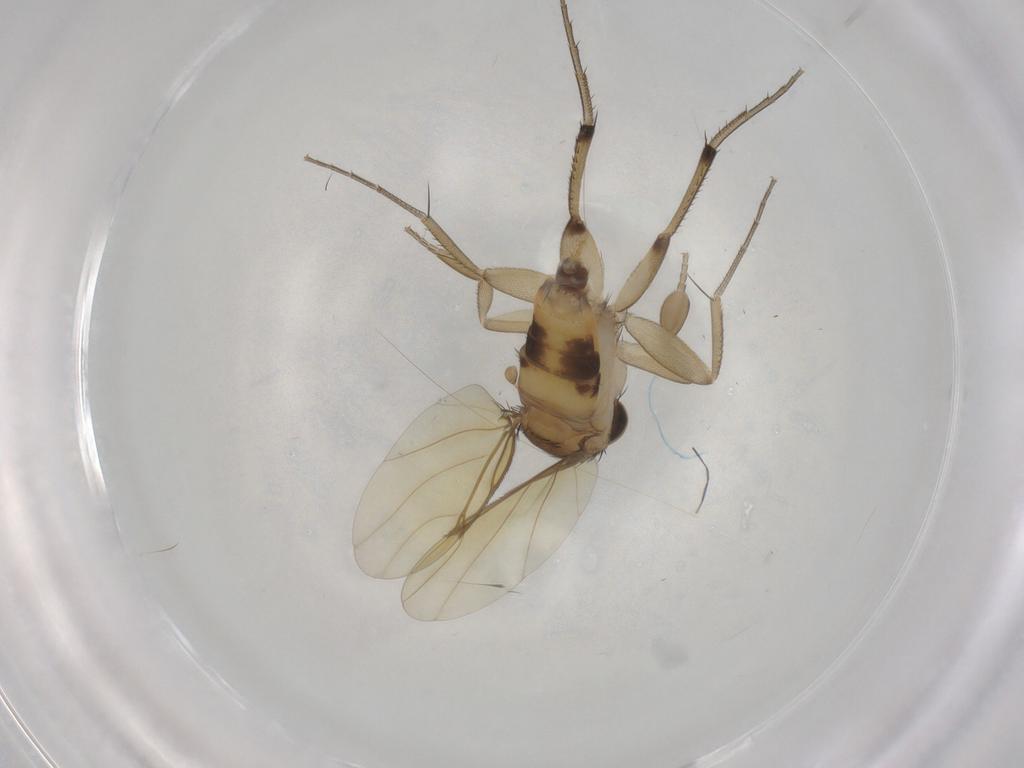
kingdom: Animalia
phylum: Arthropoda
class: Insecta
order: Diptera
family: Phoridae
